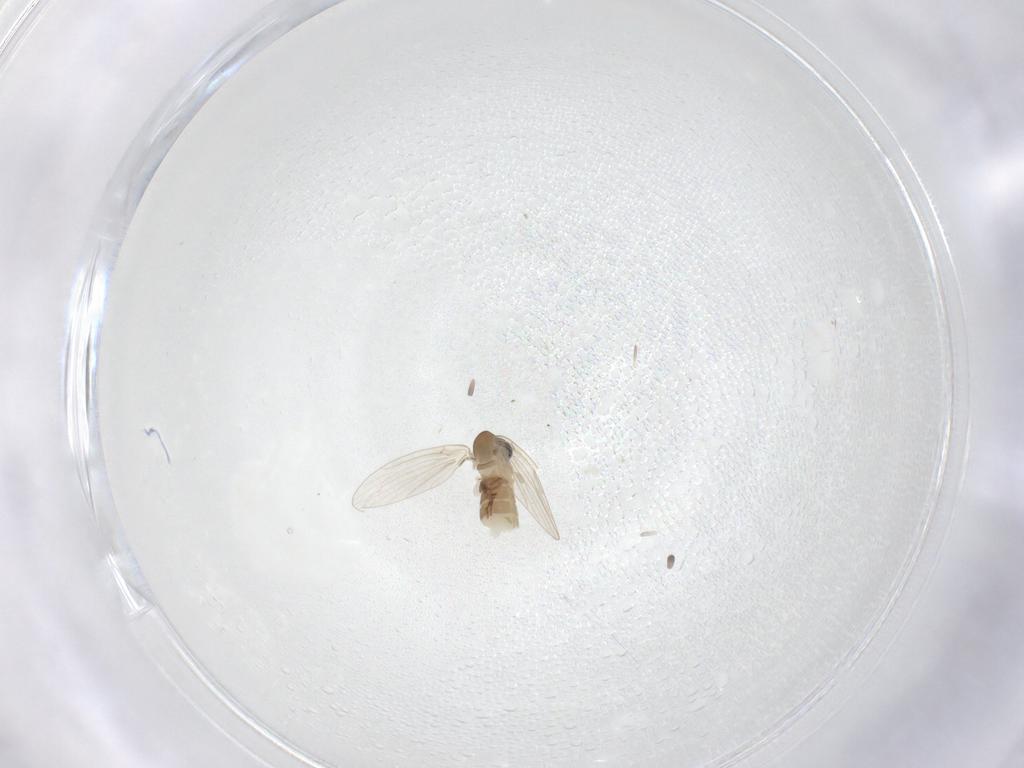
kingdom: Animalia
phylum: Arthropoda
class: Insecta
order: Diptera
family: Psychodidae
